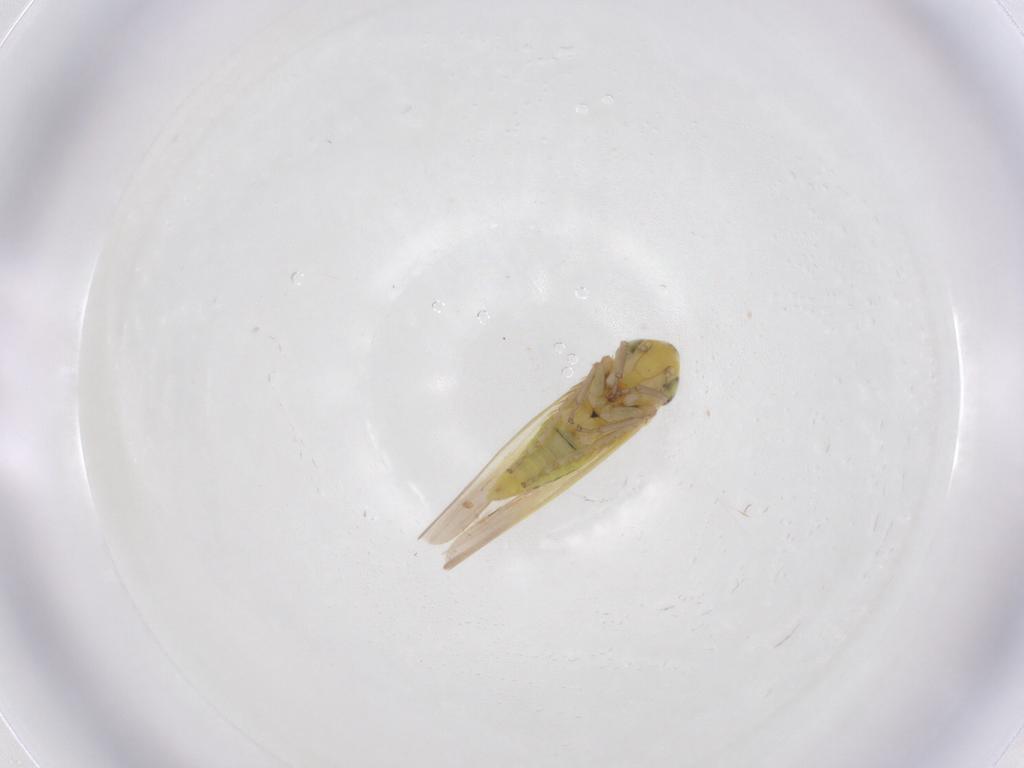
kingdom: Animalia
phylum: Arthropoda
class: Insecta
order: Hemiptera
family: Cicadellidae
